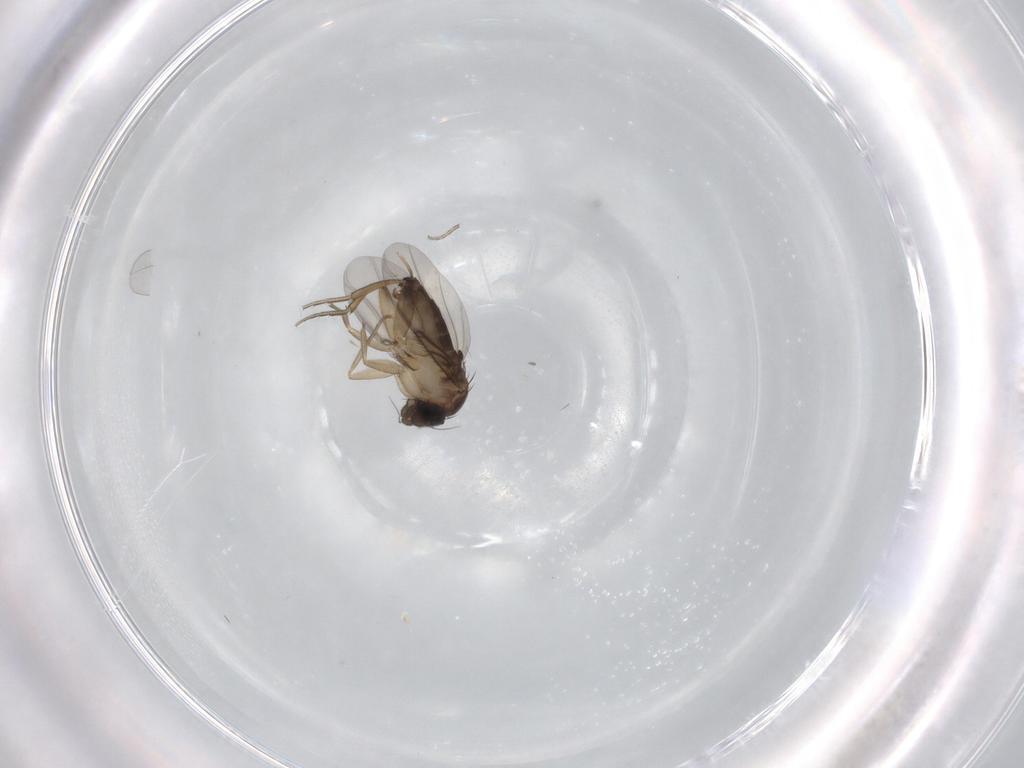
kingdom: Animalia
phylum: Arthropoda
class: Insecta
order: Diptera
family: Phoridae
